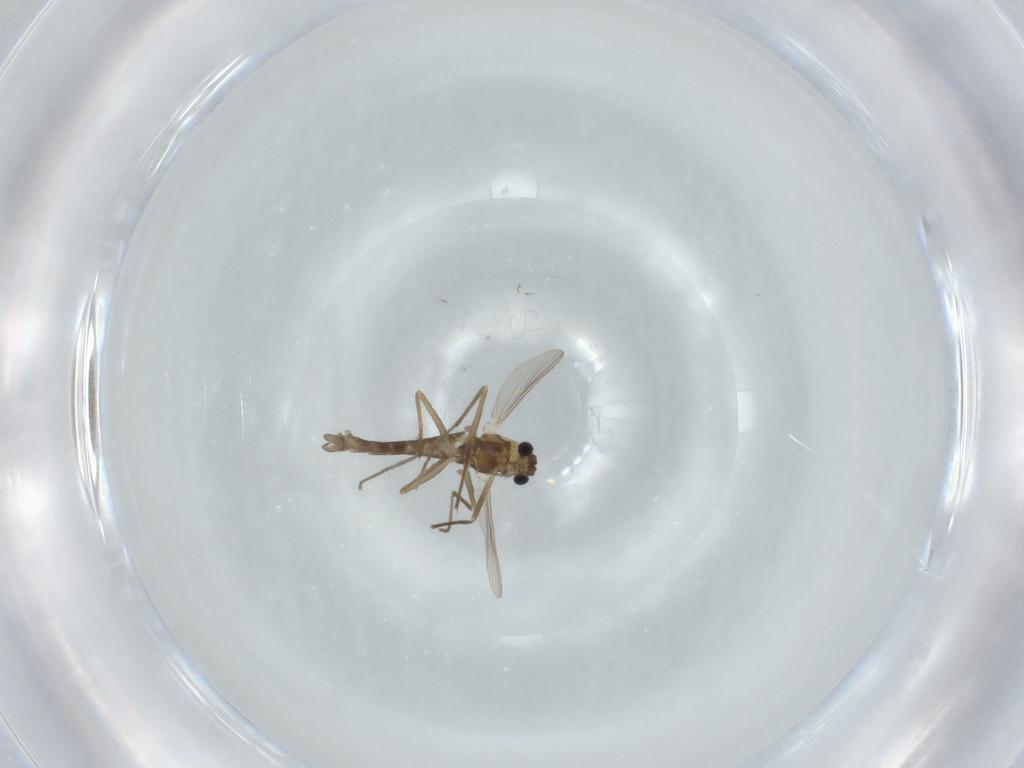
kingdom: Animalia
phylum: Arthropoda
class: Insecta
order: Diptera
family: Chironomidae
